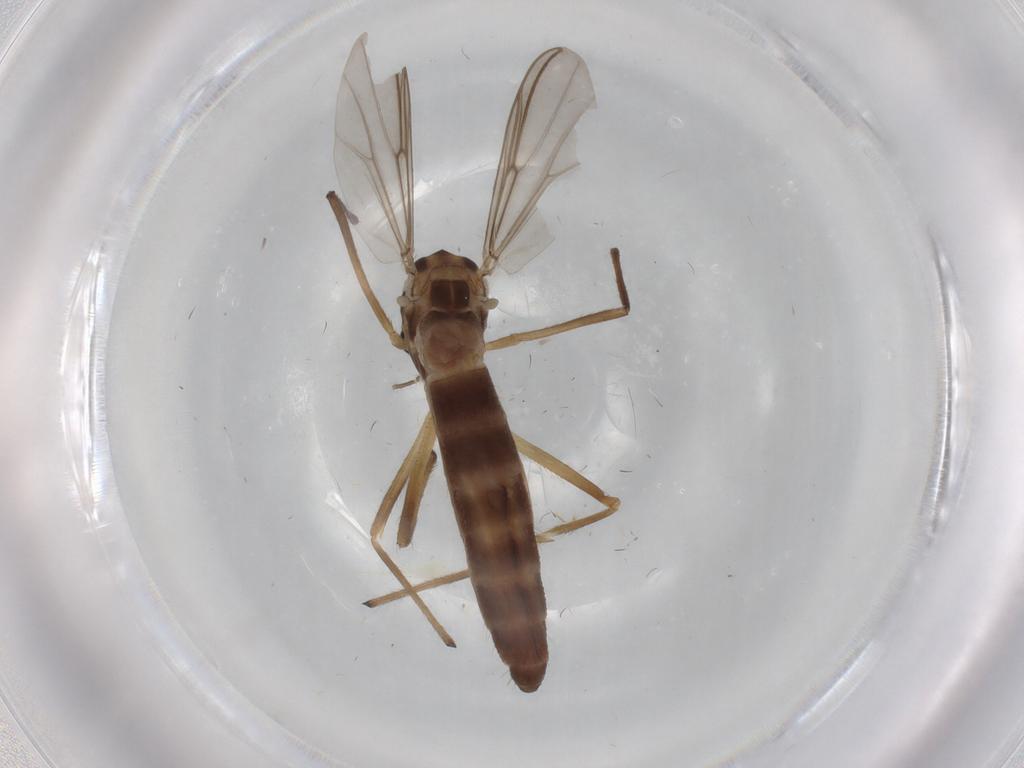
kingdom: Animalia
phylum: Arthropoda
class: Insecta
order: Diptera
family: Chironomidae
